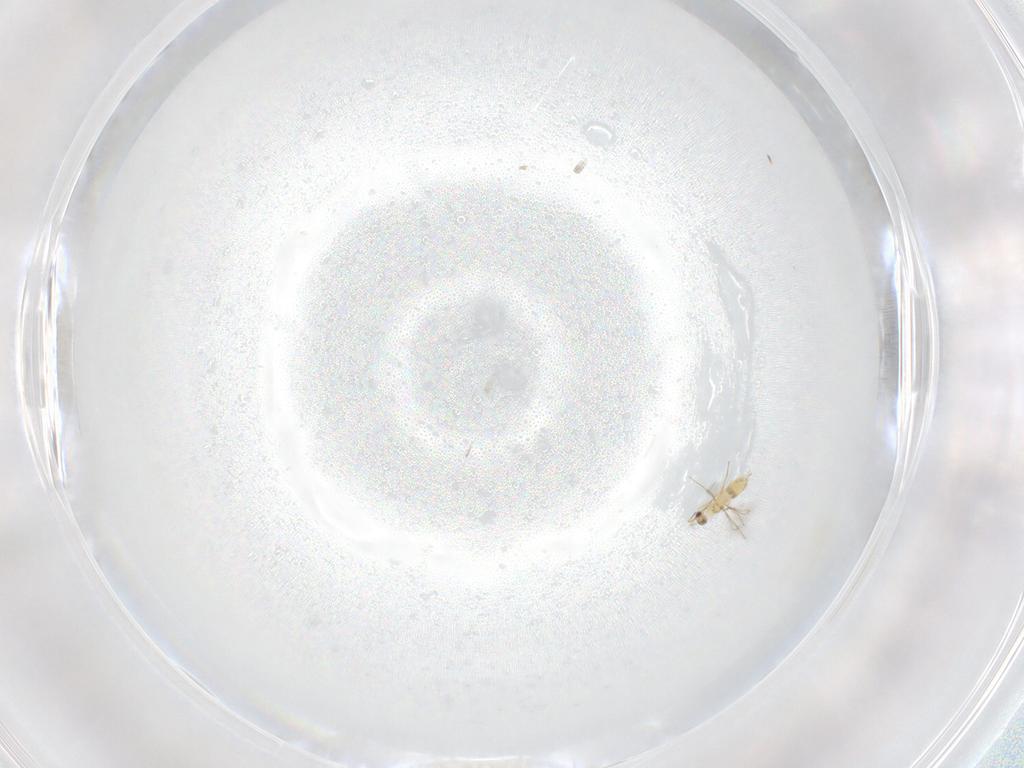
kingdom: Animalia
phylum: Arthropoda
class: Insecta
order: Hymenoptera
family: Mymaridae
